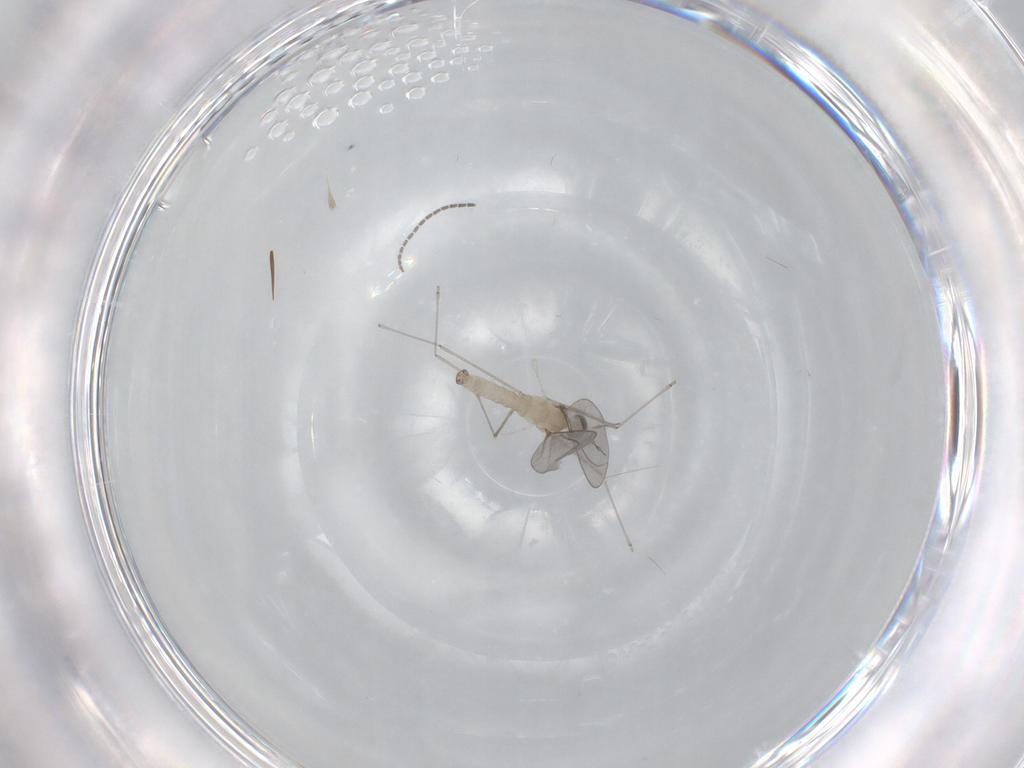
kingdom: Animalia
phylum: Arthropoda
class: Insecta
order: Diptera
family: Cecidomyiidae
